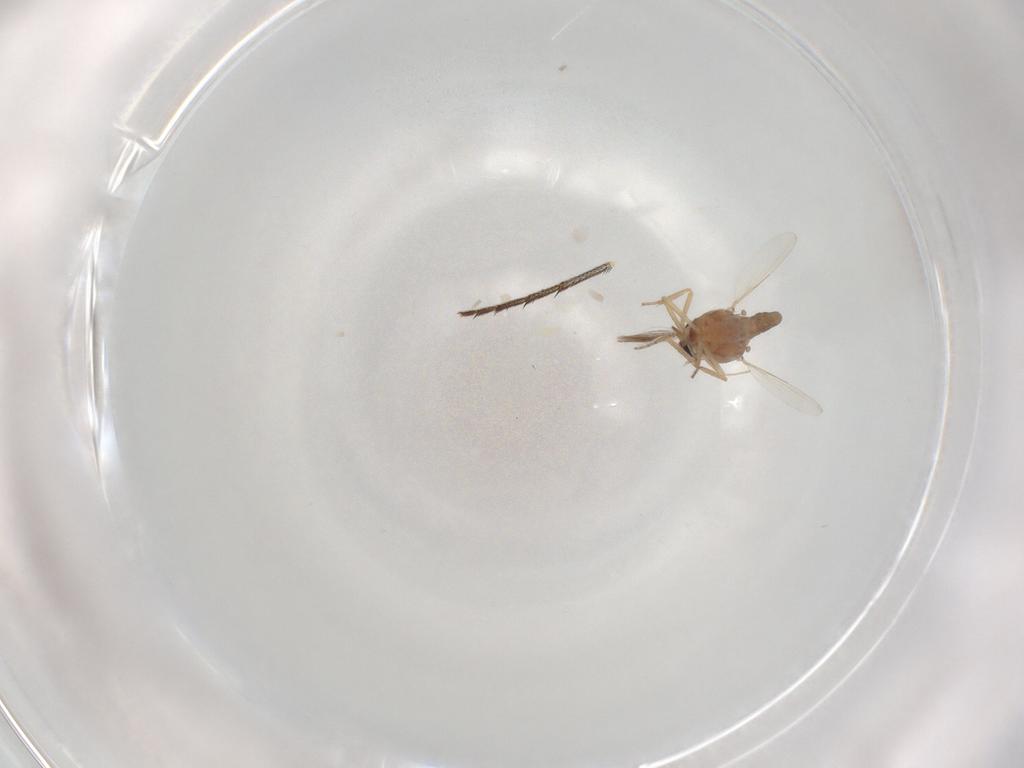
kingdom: Animalia
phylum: Arthropoda
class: Insecta
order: Diptera
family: Ceratopogonidae
